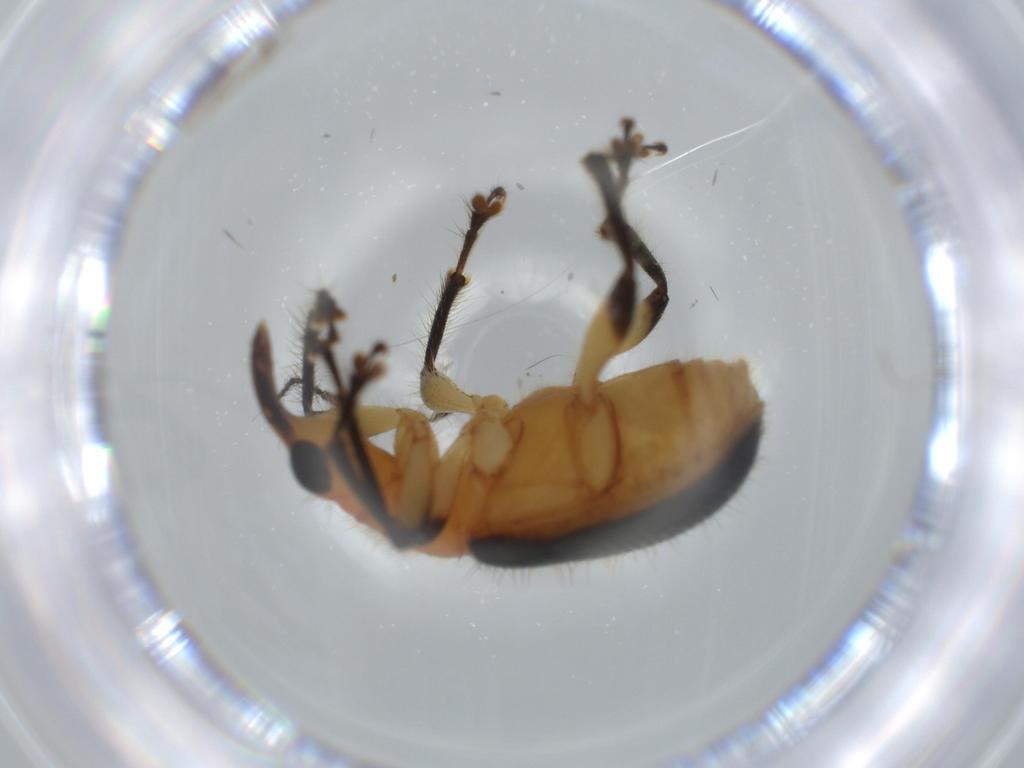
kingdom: Animalia
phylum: Arthropoda
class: Insecta
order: Coleoptera
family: Attelabidae
